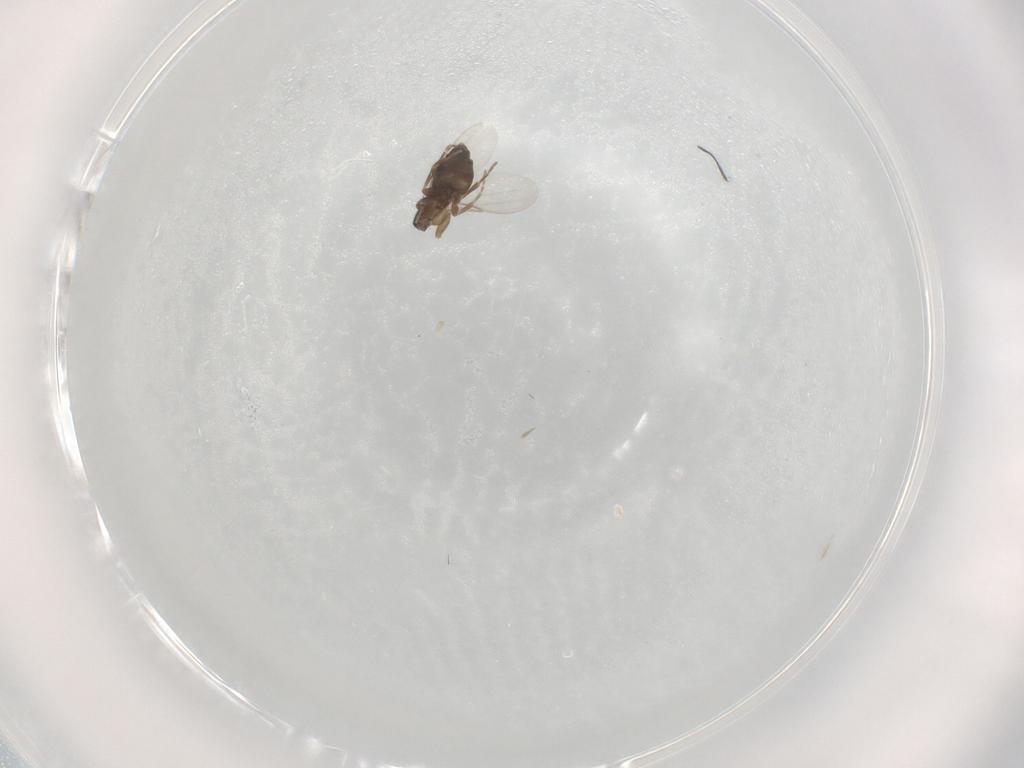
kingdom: Animalia
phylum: Arthropoda
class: Insecta
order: Diptera
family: Phoridae
